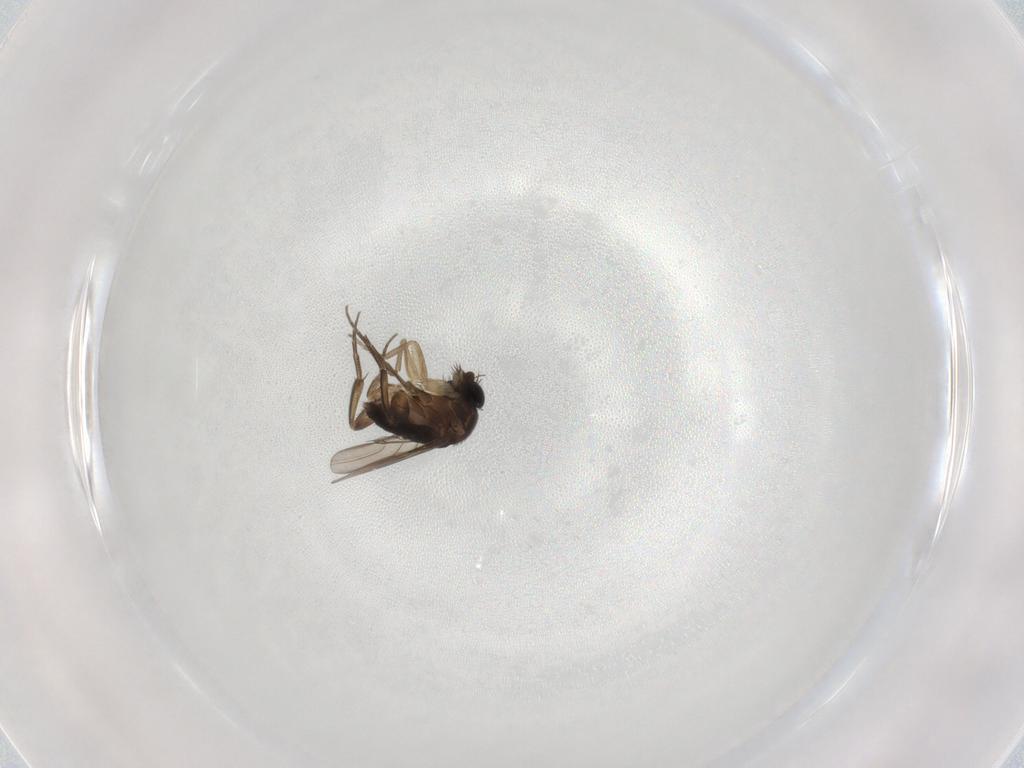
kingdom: Animalia
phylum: Arthropoda
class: Insecta
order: Diptera
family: Phoridae
